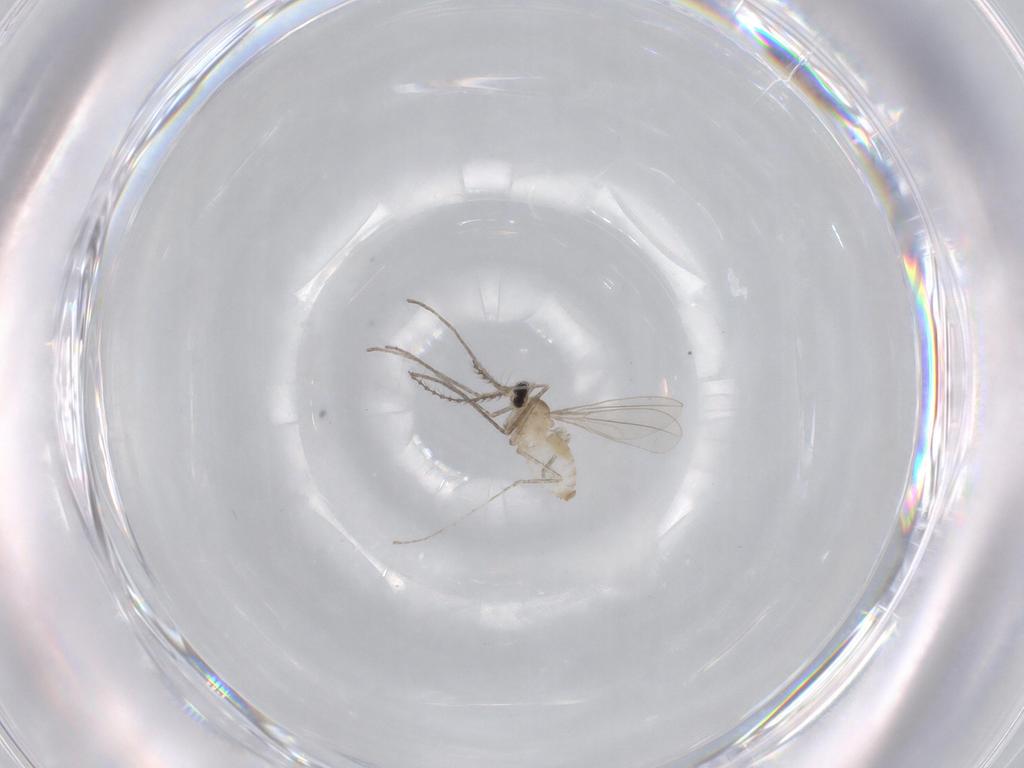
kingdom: Animalia
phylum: Arthropoda
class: Insecta
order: Diptera
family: Cecidomyiidae
